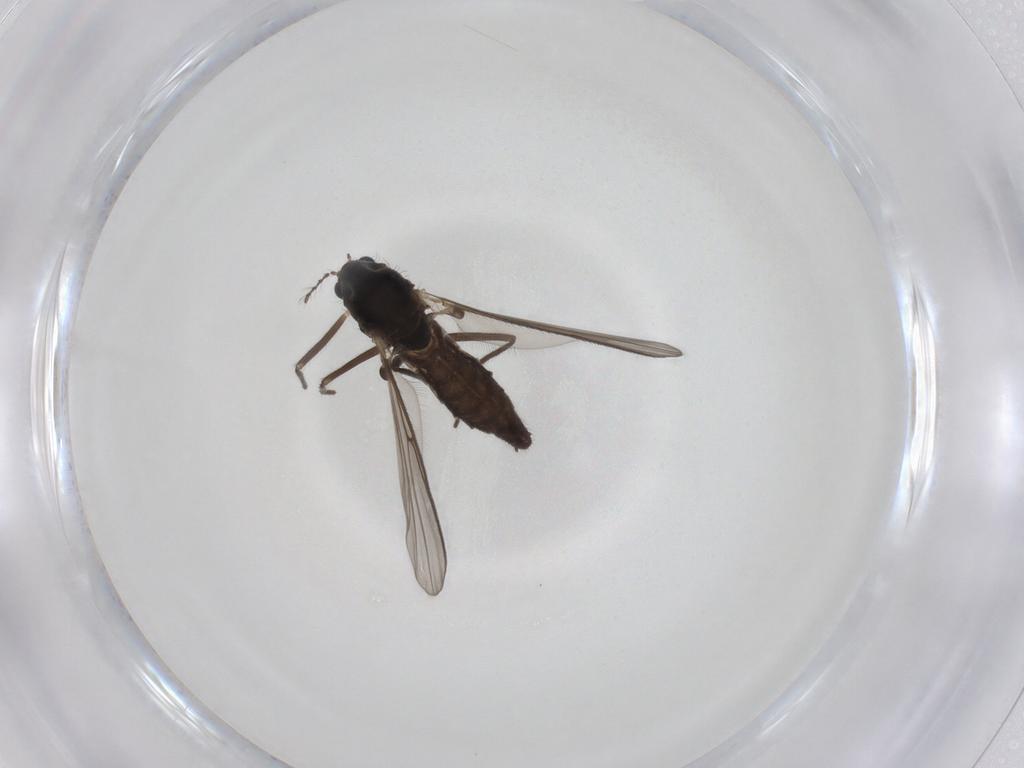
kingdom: Animalia
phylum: Arthropoda
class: Insecta
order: Diptera
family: Chironomidae
